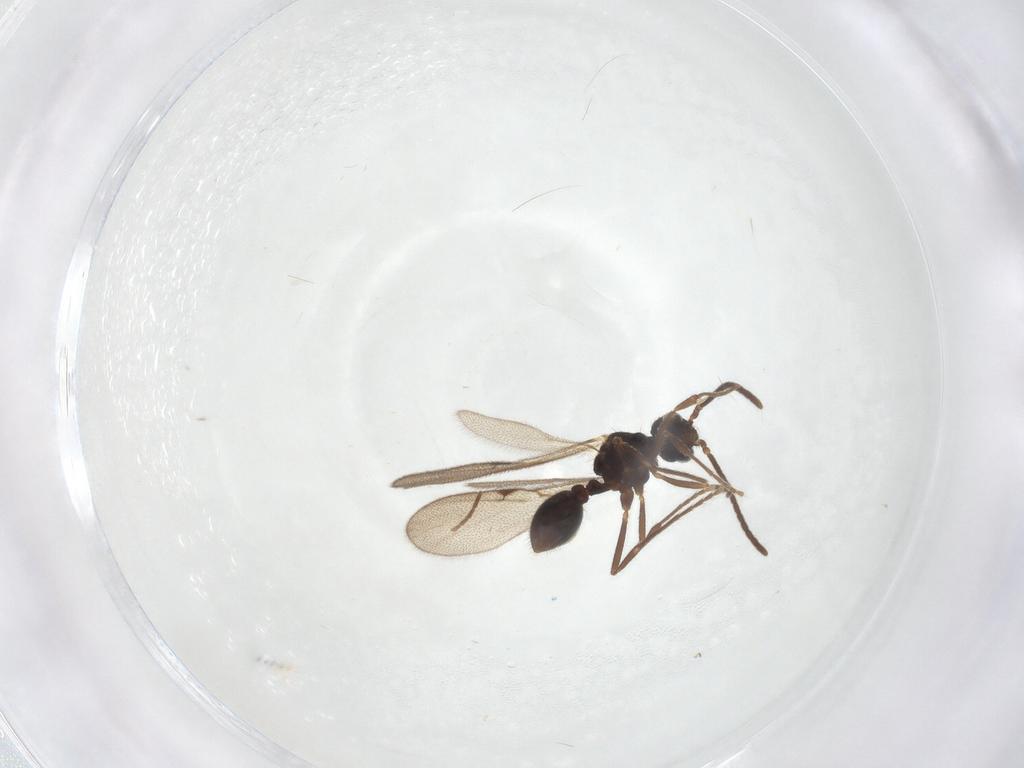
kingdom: Animalia
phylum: Arthropoda
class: Insecta
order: Hymenoptera
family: Formicidae
